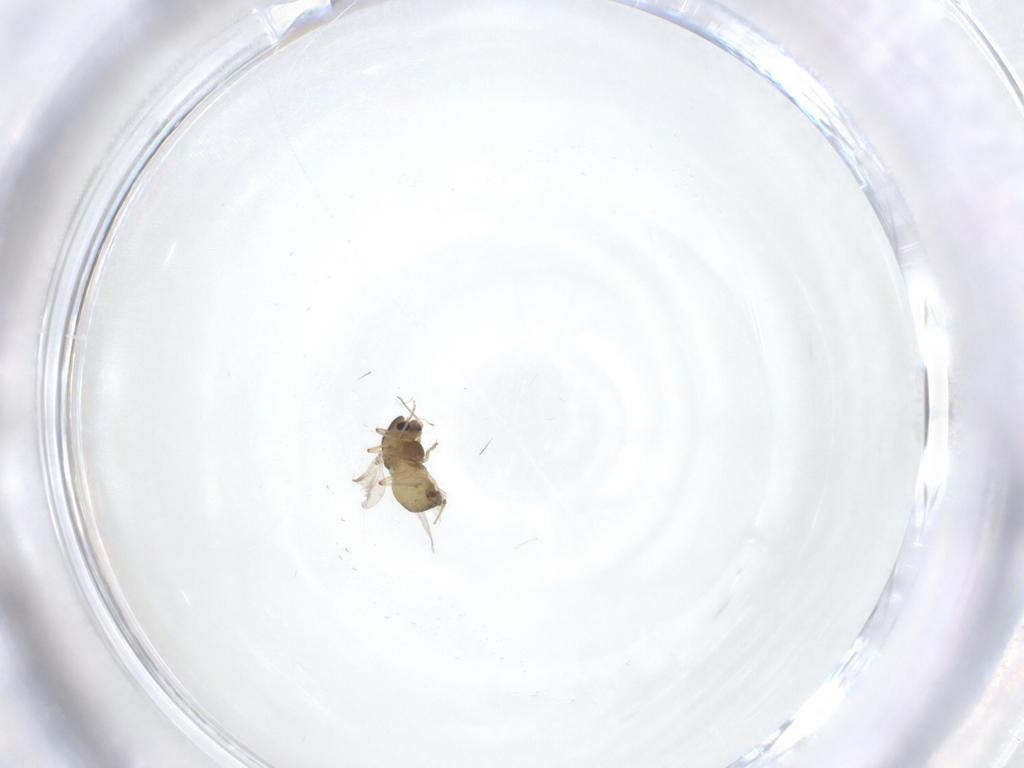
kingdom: Animalia
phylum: Arthropoda
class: Insecta
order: Diptera
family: Chironomidae
